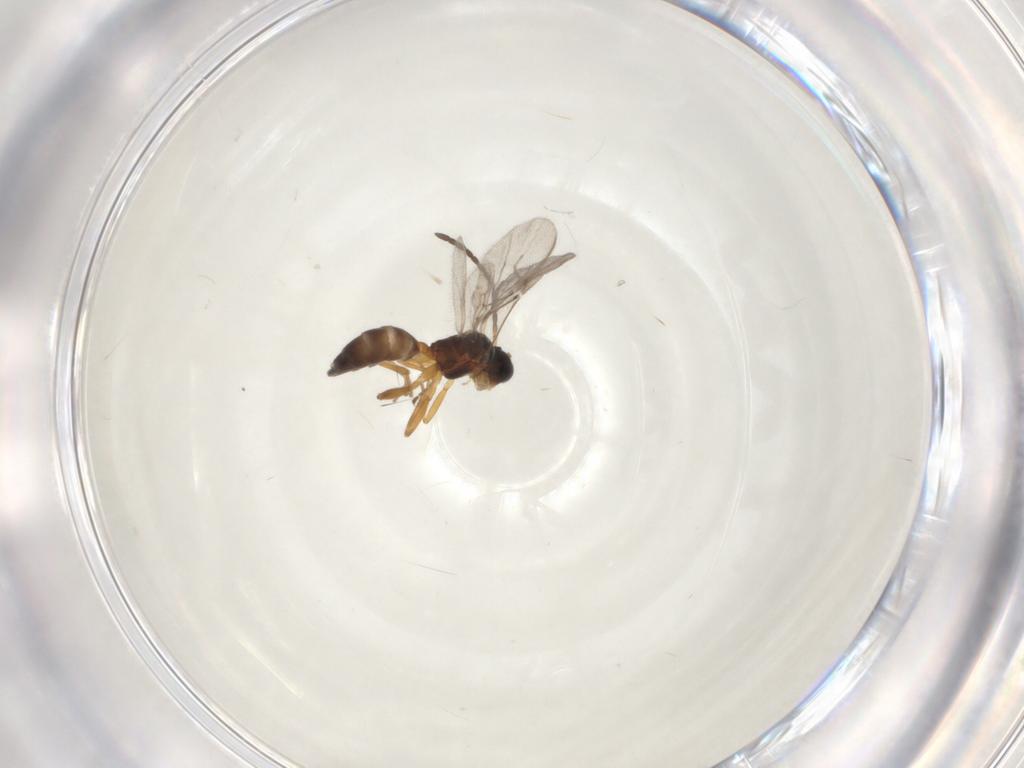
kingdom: Animalia
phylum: Arthropoda
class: Insecta
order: Hymenoptera
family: Braconidae
